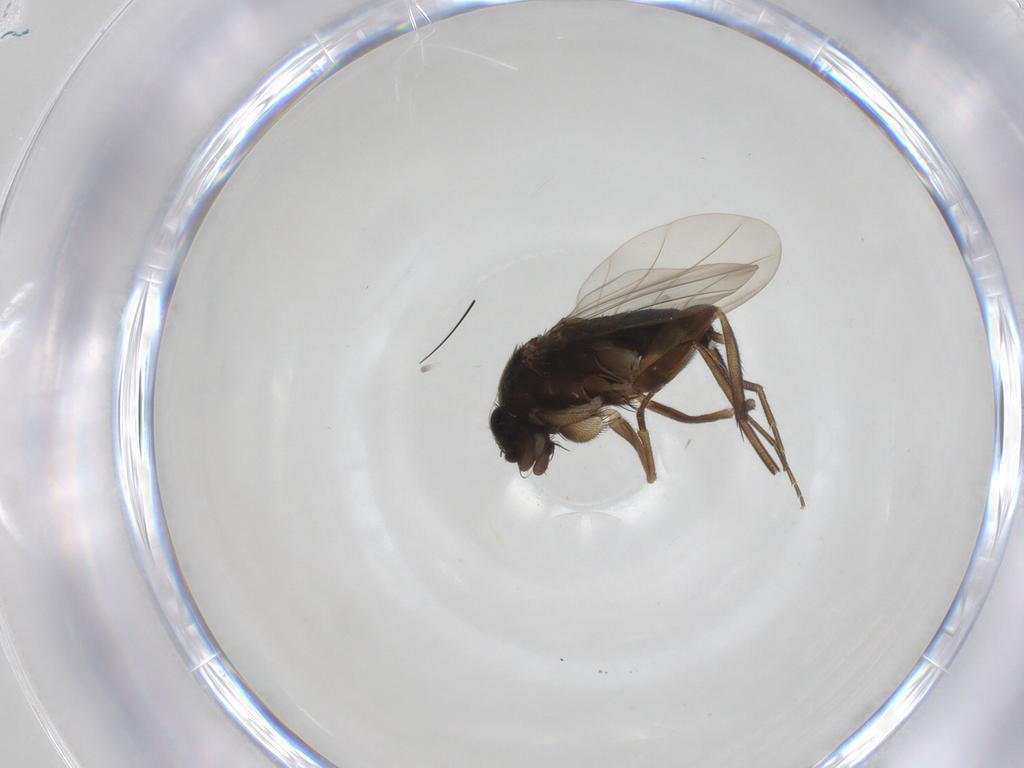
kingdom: Animalia
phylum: Arthropoda
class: Insecta
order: Diptera
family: Phoridae
